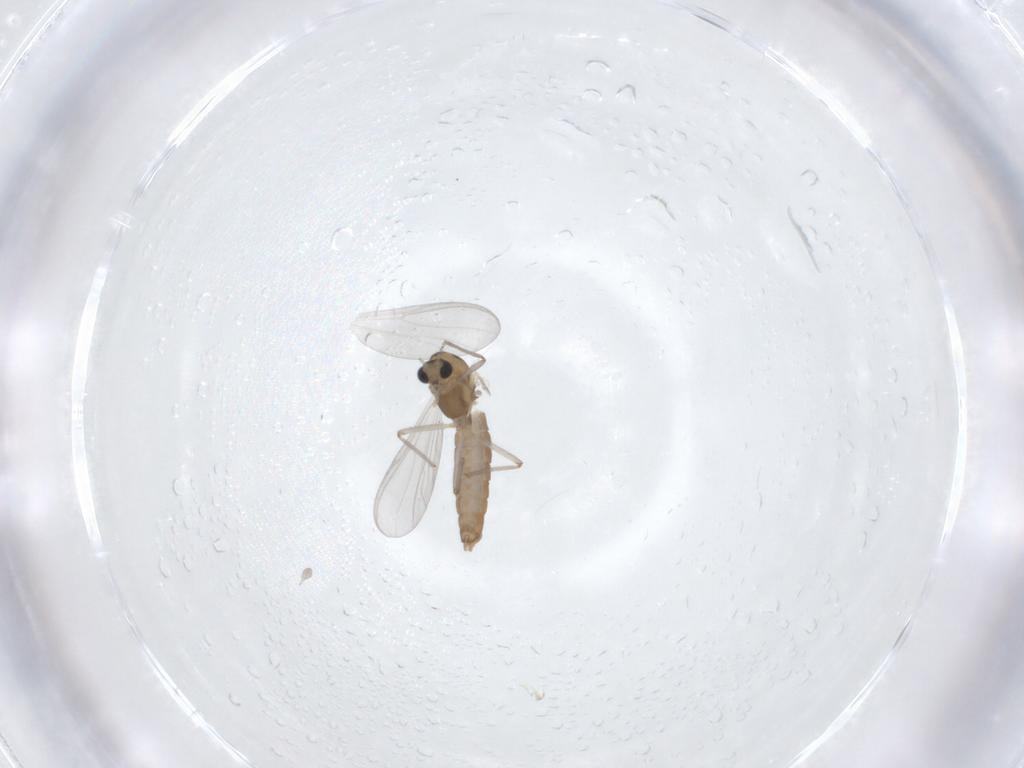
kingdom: Animalia
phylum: Arthropoda
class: Insecta
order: Diptera
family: Chironomidae
